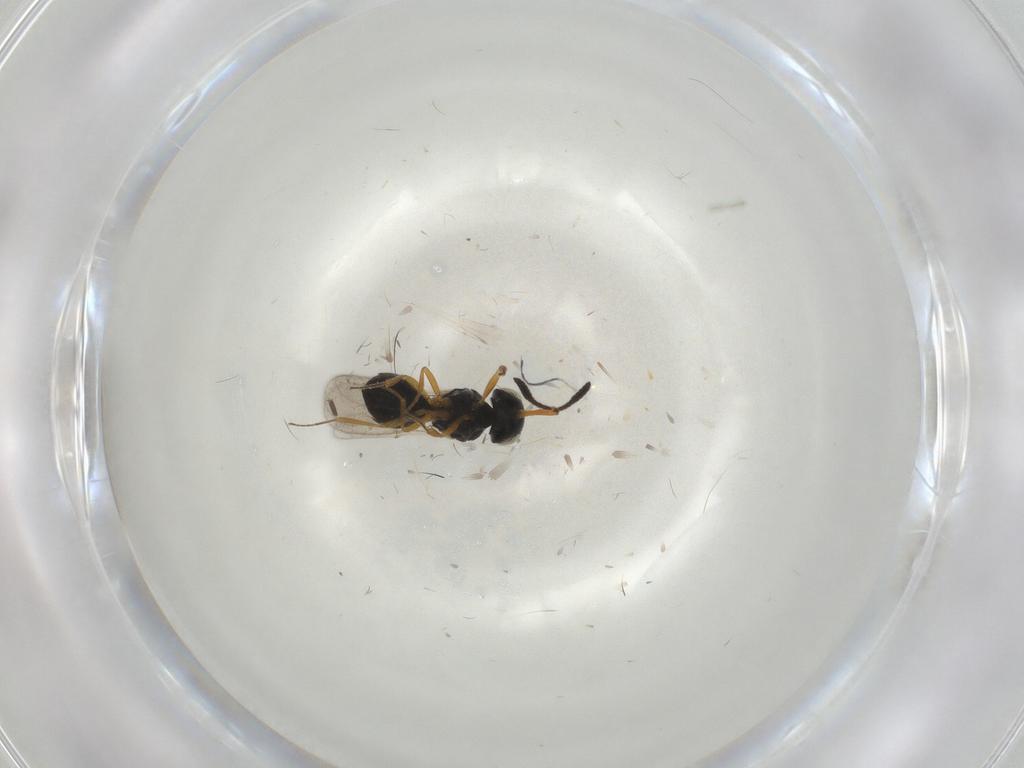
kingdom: Animalia
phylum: Arthropoda
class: Insecta
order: Hymenoptera
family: Scelionidae
